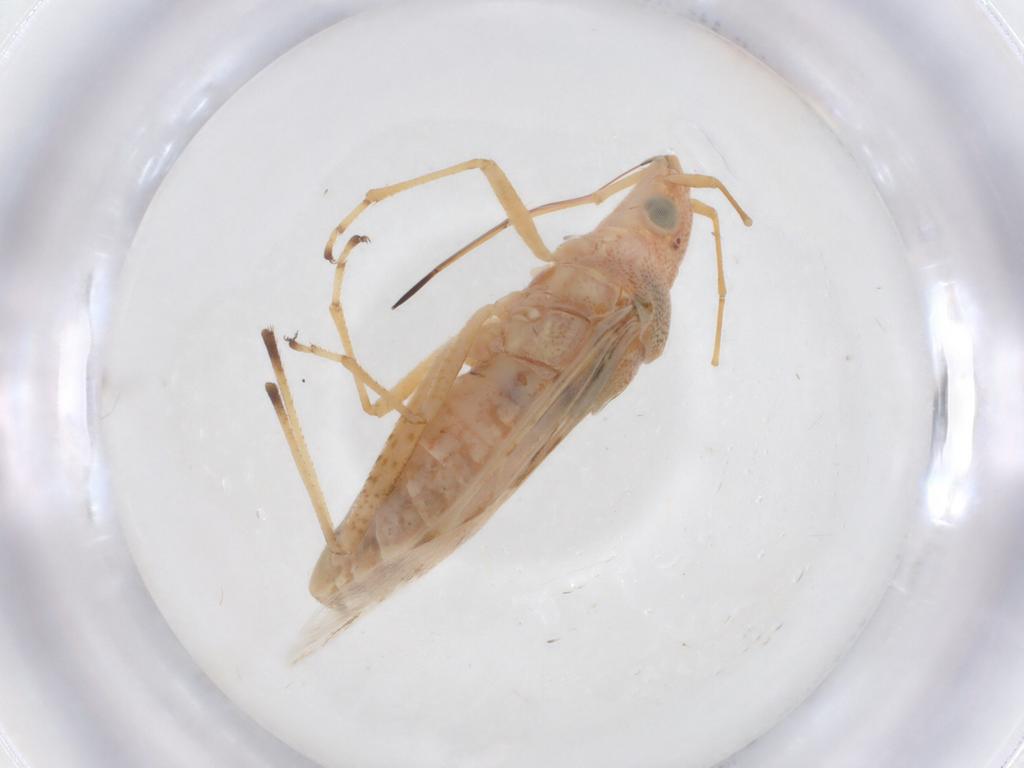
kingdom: Animalia
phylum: Arthropoda
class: Insecta
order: Hemiptera
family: Lygaeidae
